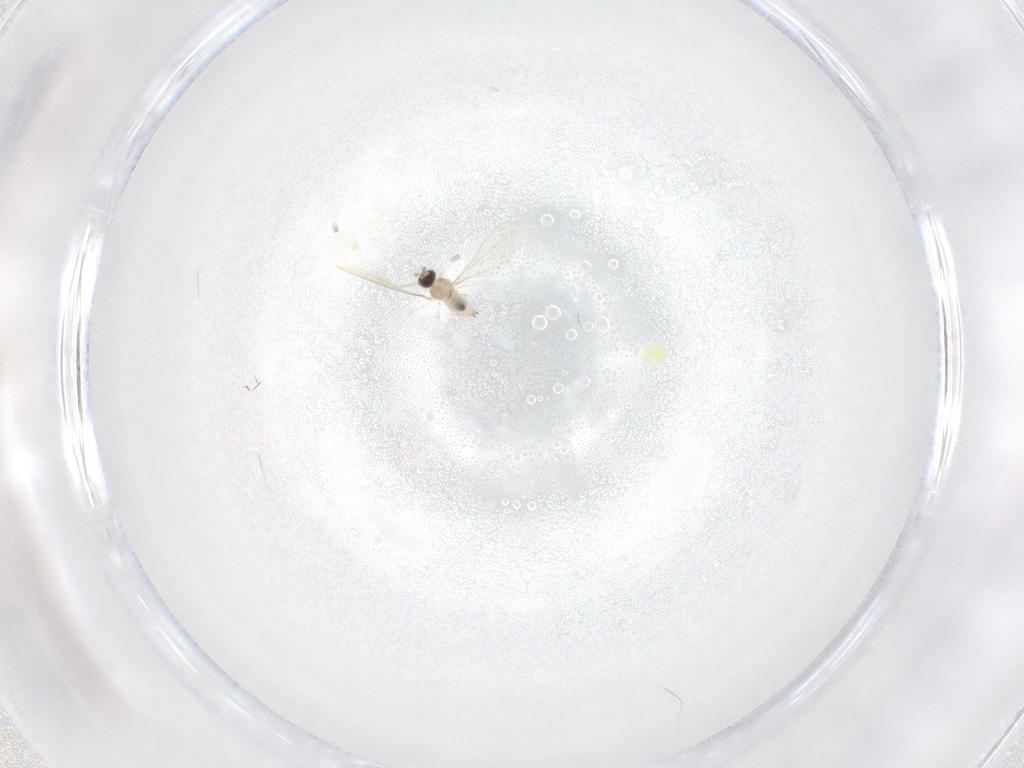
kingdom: Animalia
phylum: Arthropoda
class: Insecta
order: Diptera
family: Cecidomyiidae
